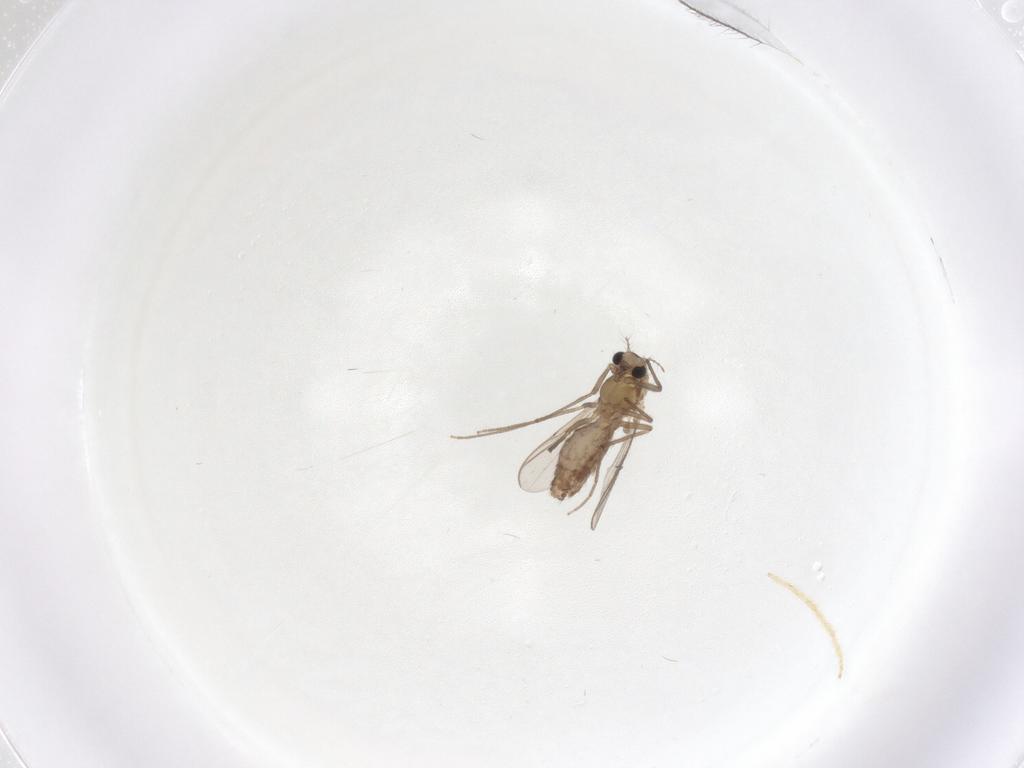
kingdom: Animalia
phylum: Arthropoda
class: Insecta
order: Diptera
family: Chironomidae
